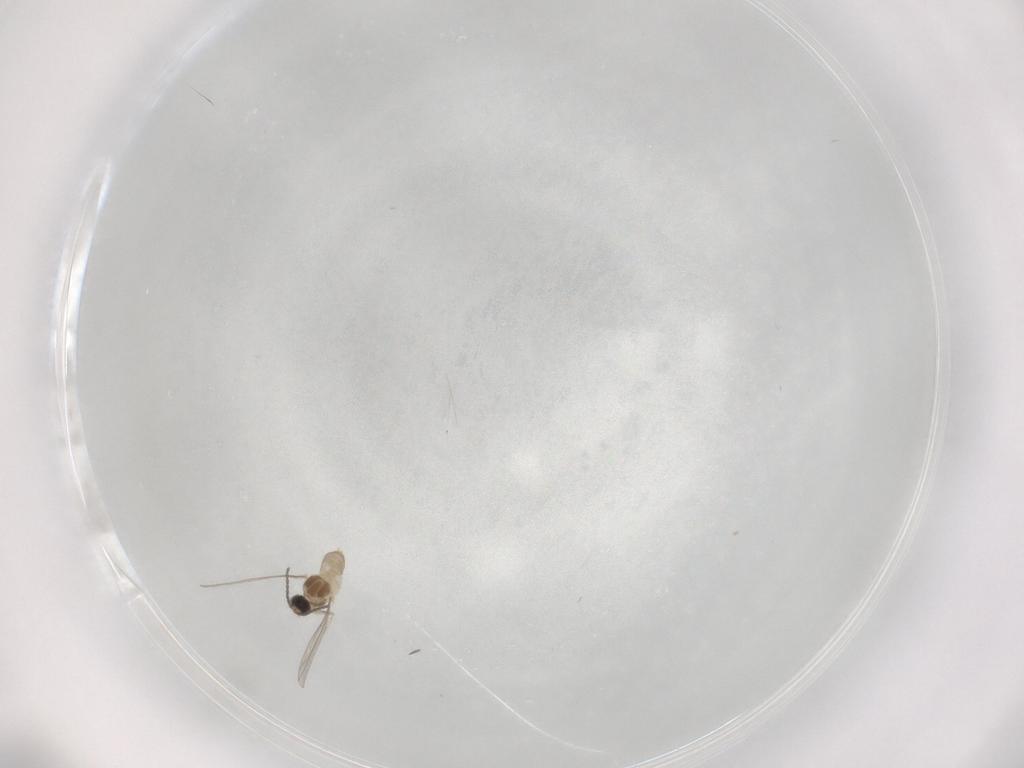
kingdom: Animalia
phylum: Arthropoda
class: Insecta
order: Diptera
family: Cecidomyiidae
